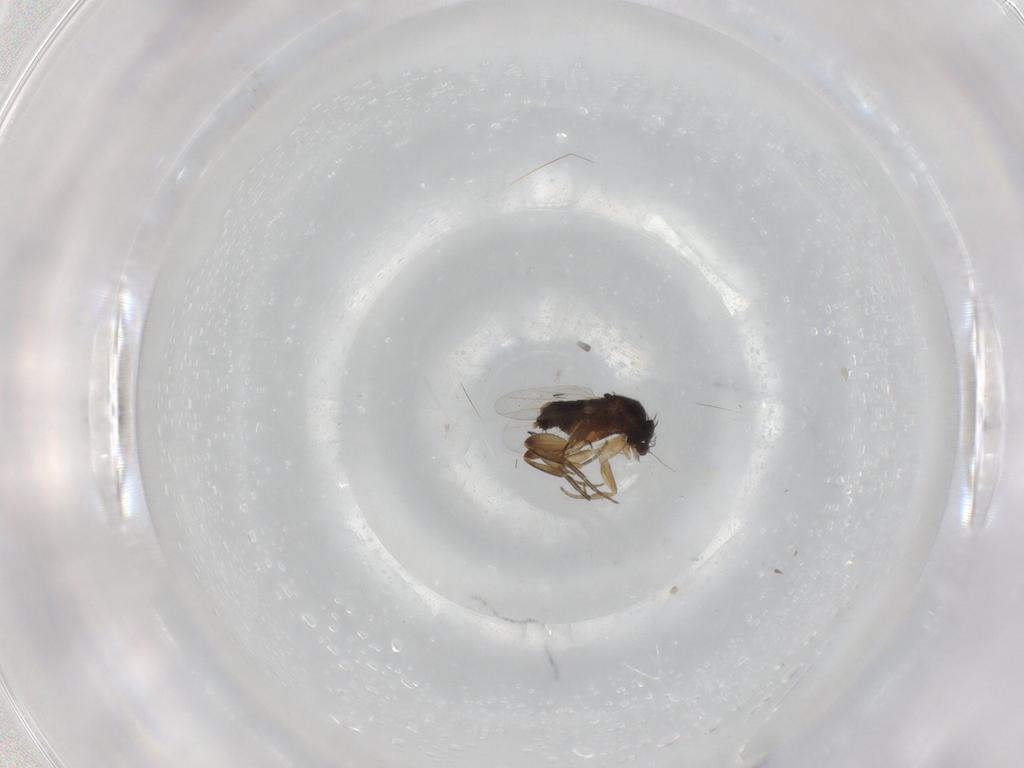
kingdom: Animalia
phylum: Arthropoda
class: Insecta
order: Diptera
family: Phoridae
